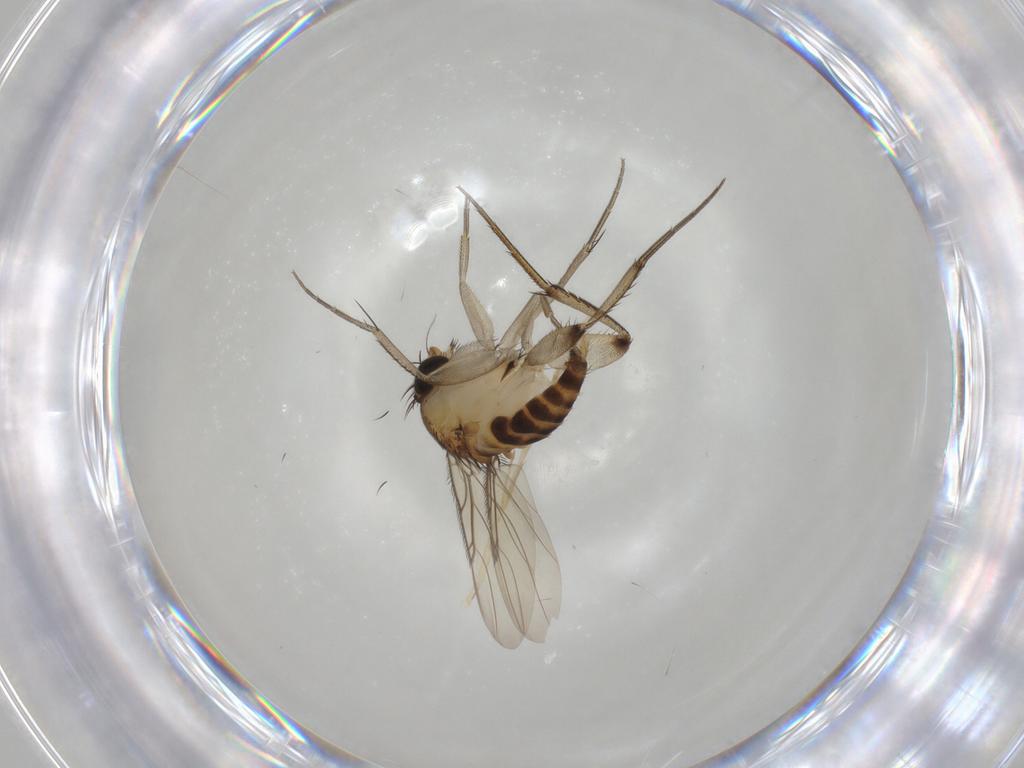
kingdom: Animalia
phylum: Arthropoda
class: Insecta
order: Diptera
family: Phoridae
